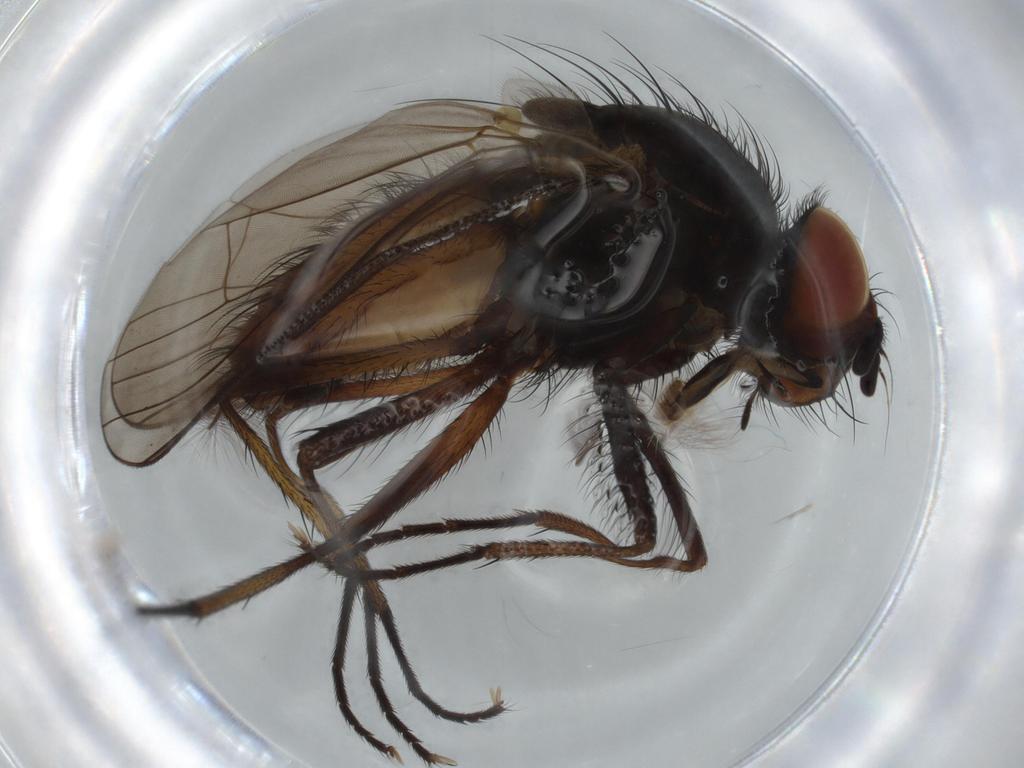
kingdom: Animalia
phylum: Arthropoda
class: Insecta
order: Diptera
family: Anthomyiidae
